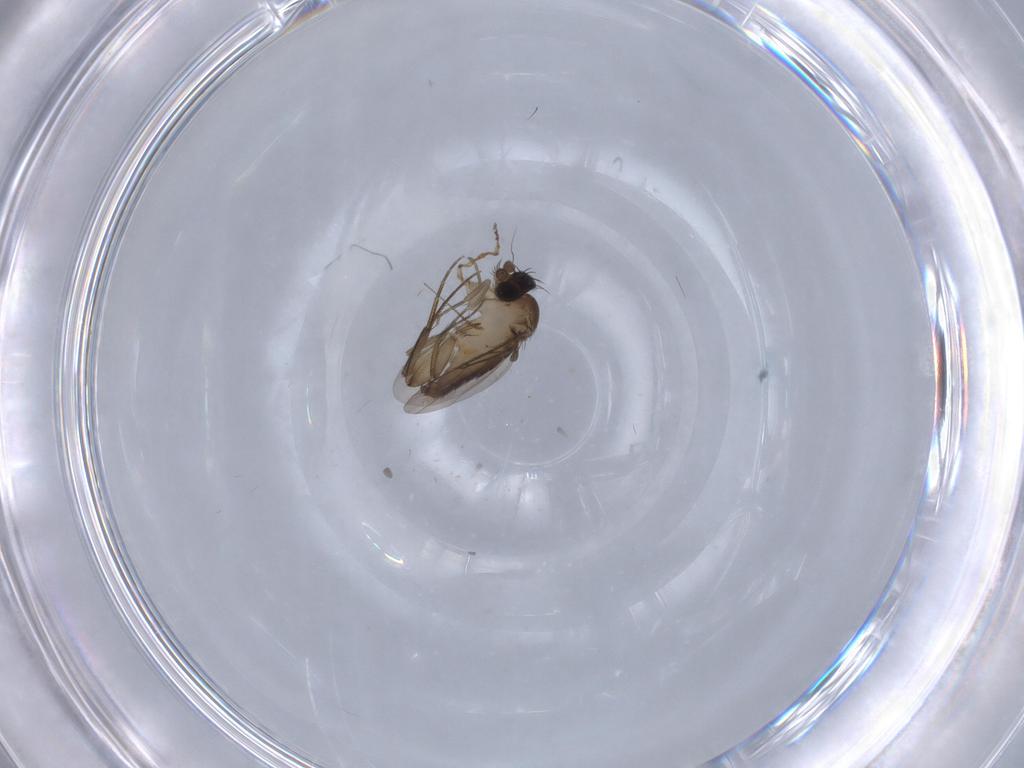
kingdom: Animalia
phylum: Arthropoda
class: Insecta
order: Diptera
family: Phoridae
